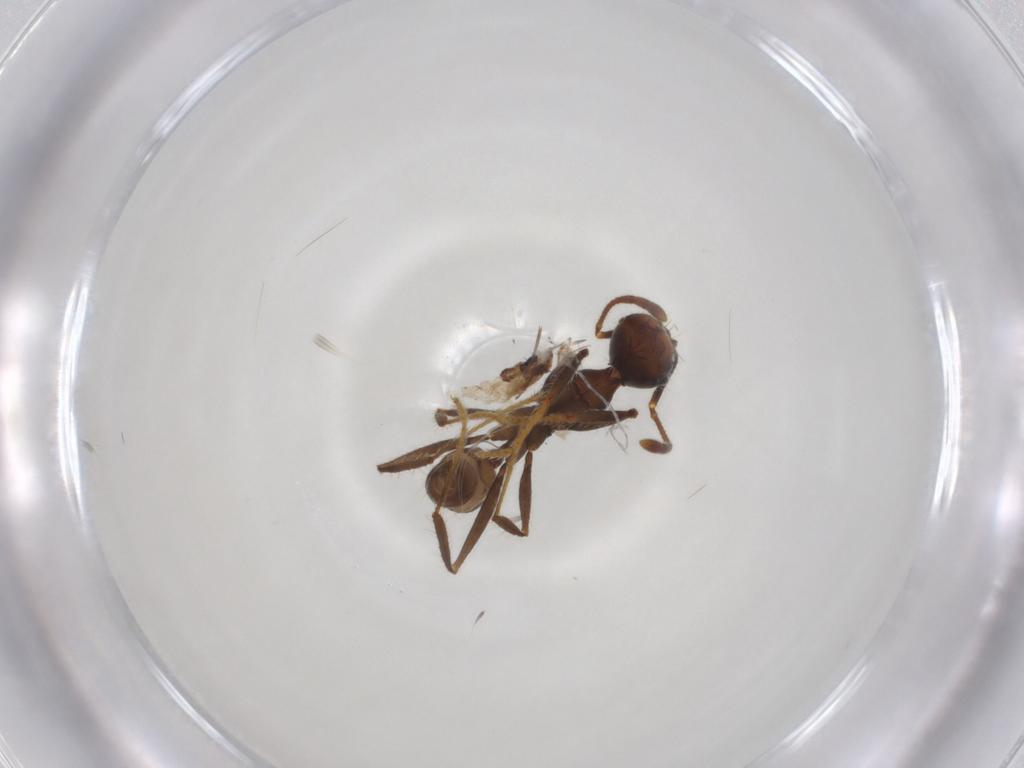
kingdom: Animalia
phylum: Arthropoda
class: Insecta
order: Hymenoptera
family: Formicidae
